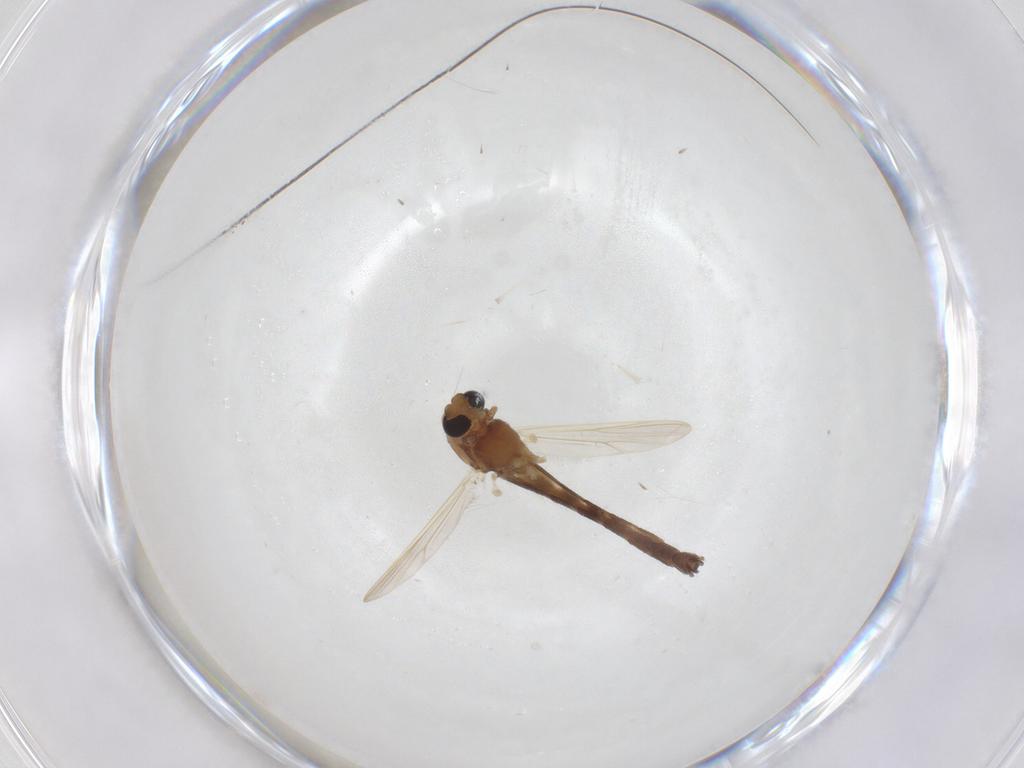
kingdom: Animalia
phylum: Arthropoda
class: Insecta
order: Diptera
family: Chironomidae
